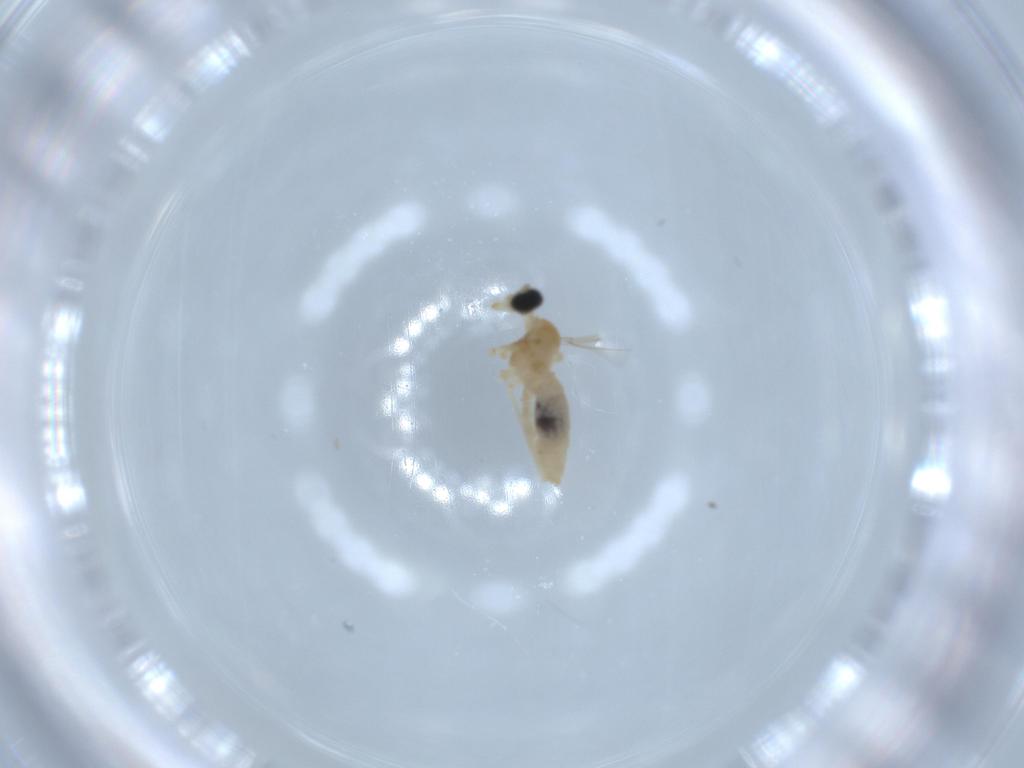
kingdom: Animalia
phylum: Arthropoda
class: Insecta
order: Diptera
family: Cecidomyiidae
